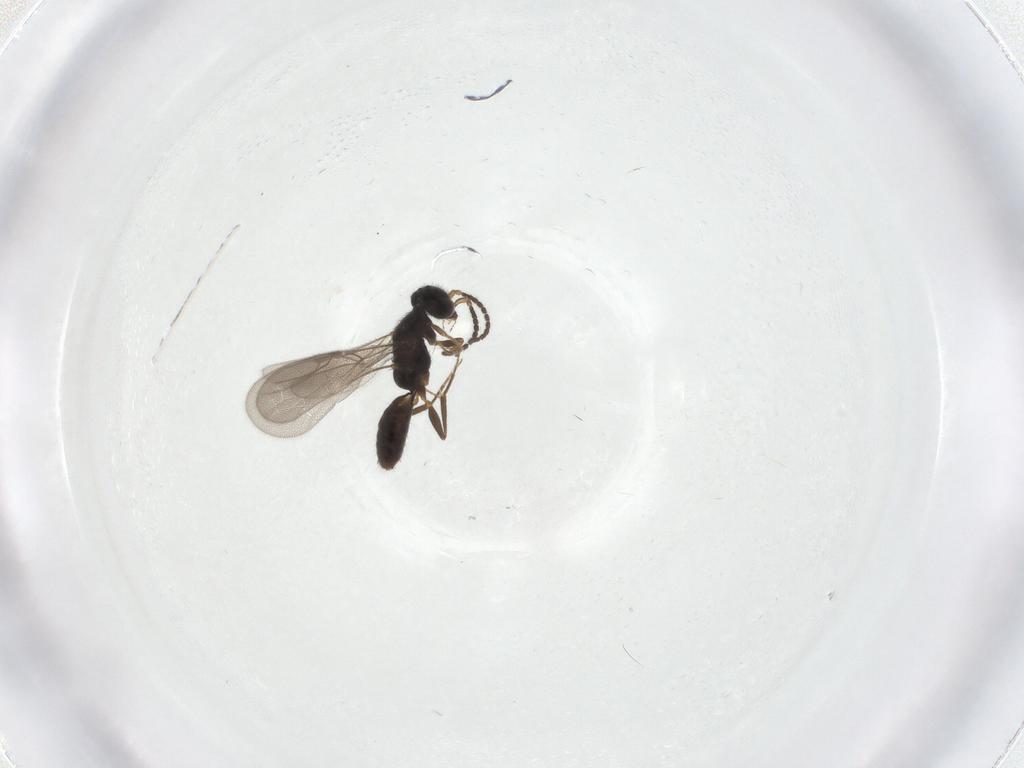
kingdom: Animalia
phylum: Arthropoda
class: Insecta
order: Hymenoptera
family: Bethylidae
